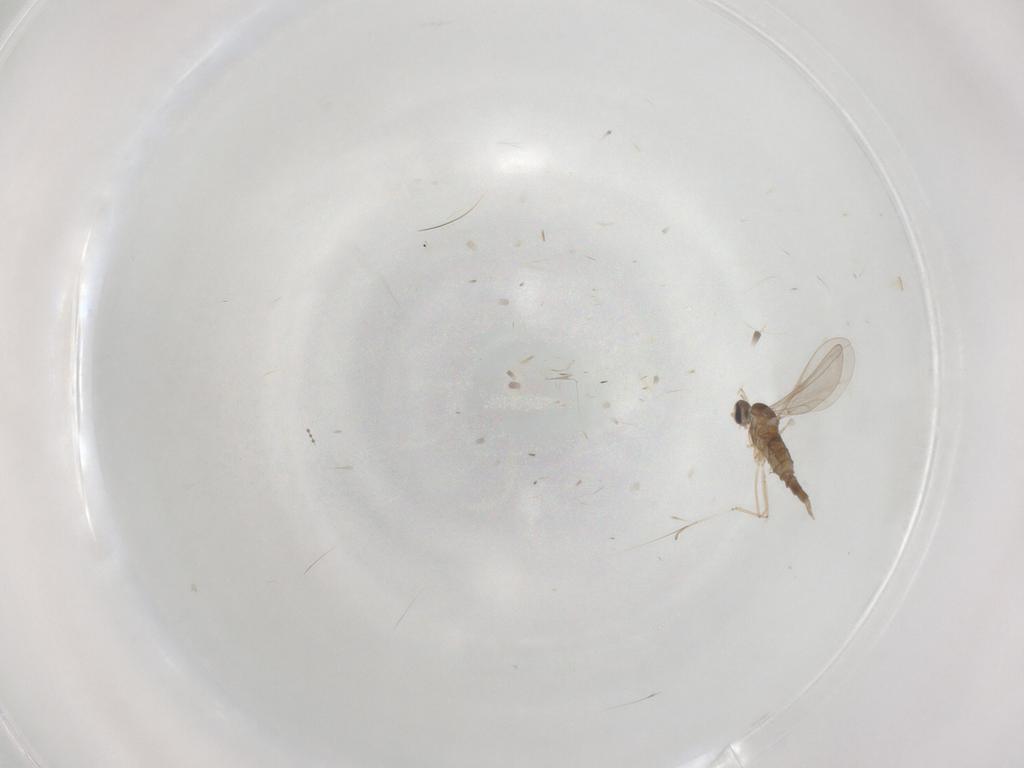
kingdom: Animalia
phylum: Arthropoda
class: Insecta
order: Diptera
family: Cecidomyiidae
